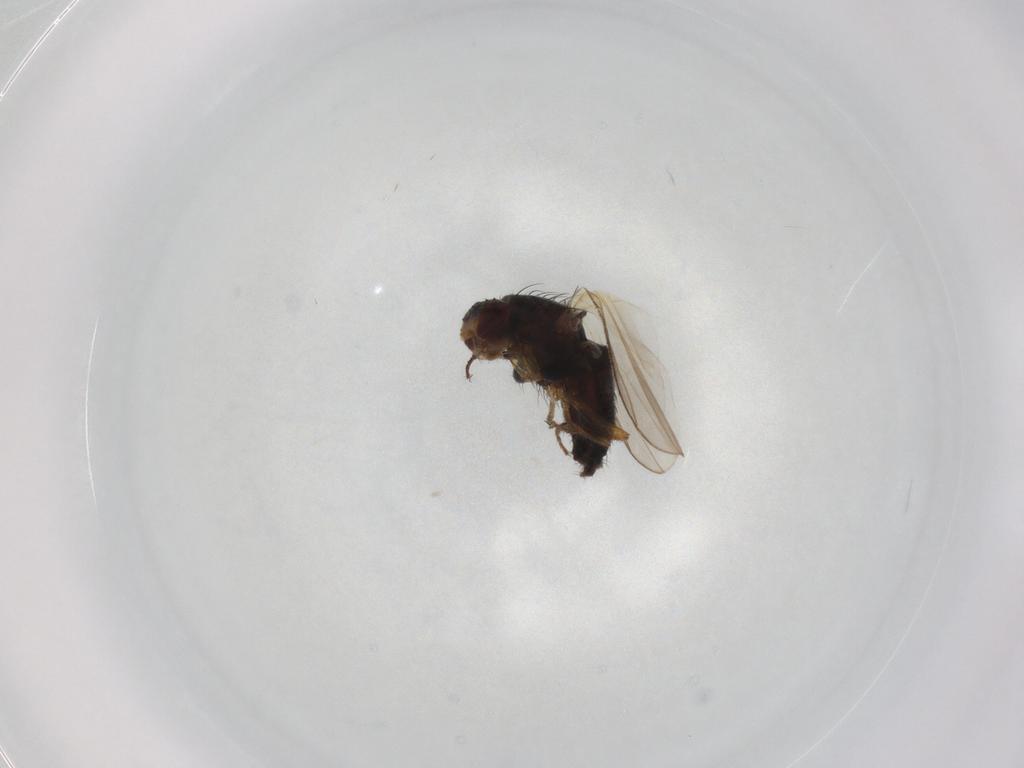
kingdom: Animalia
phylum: Arthropoda
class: Insecta
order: Diptera
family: Heleomyzidae
